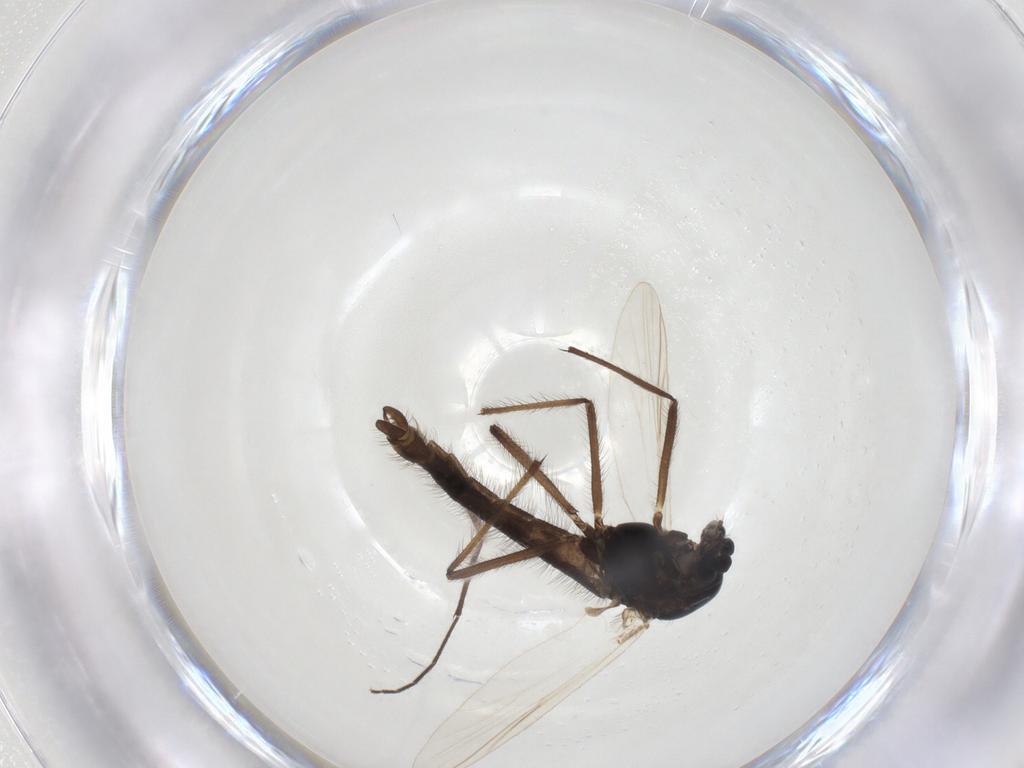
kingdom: Animalia
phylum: Arthropoda
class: Insecta
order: Diptera
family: Chironomidae
